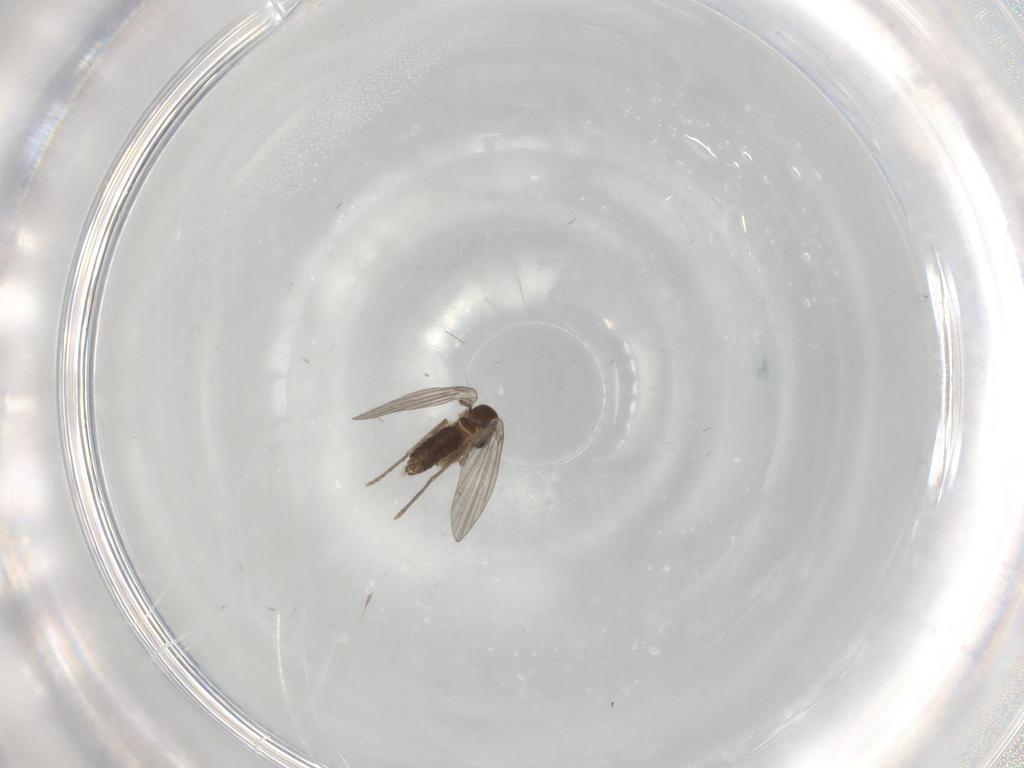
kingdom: Animalia
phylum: Arthropoda
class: Insecta
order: Diptera
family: Cecidomyiidae
